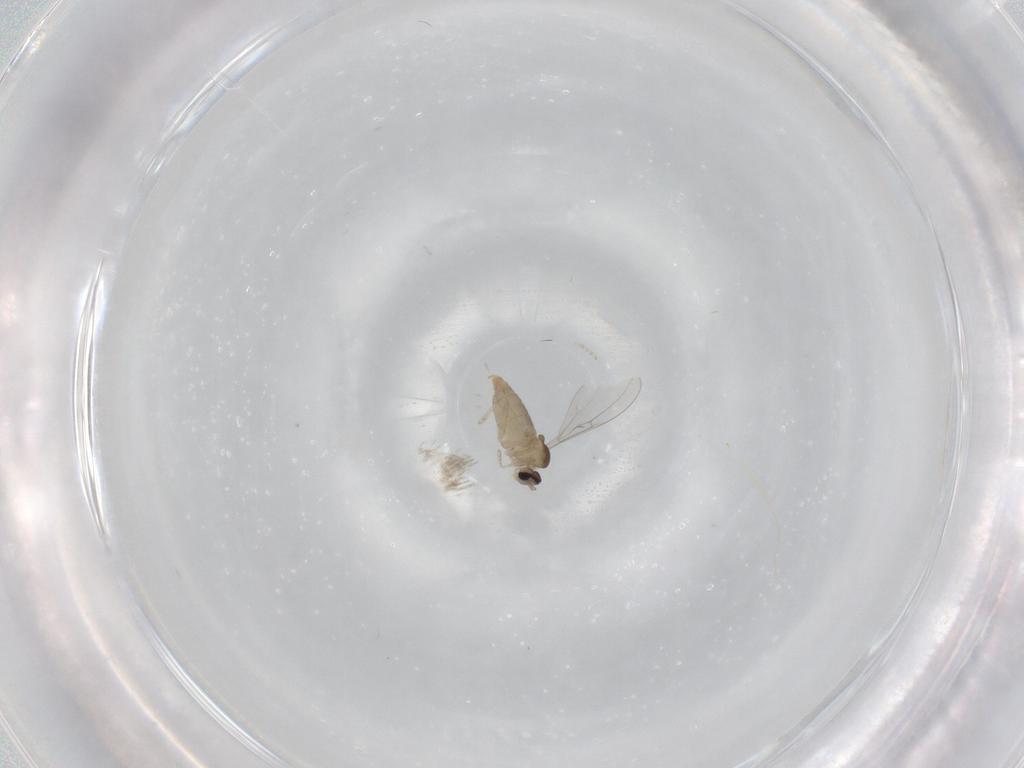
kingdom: Animalia
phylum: Arthropoda
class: Insecta
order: Diptera
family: Cecidomyiidae
